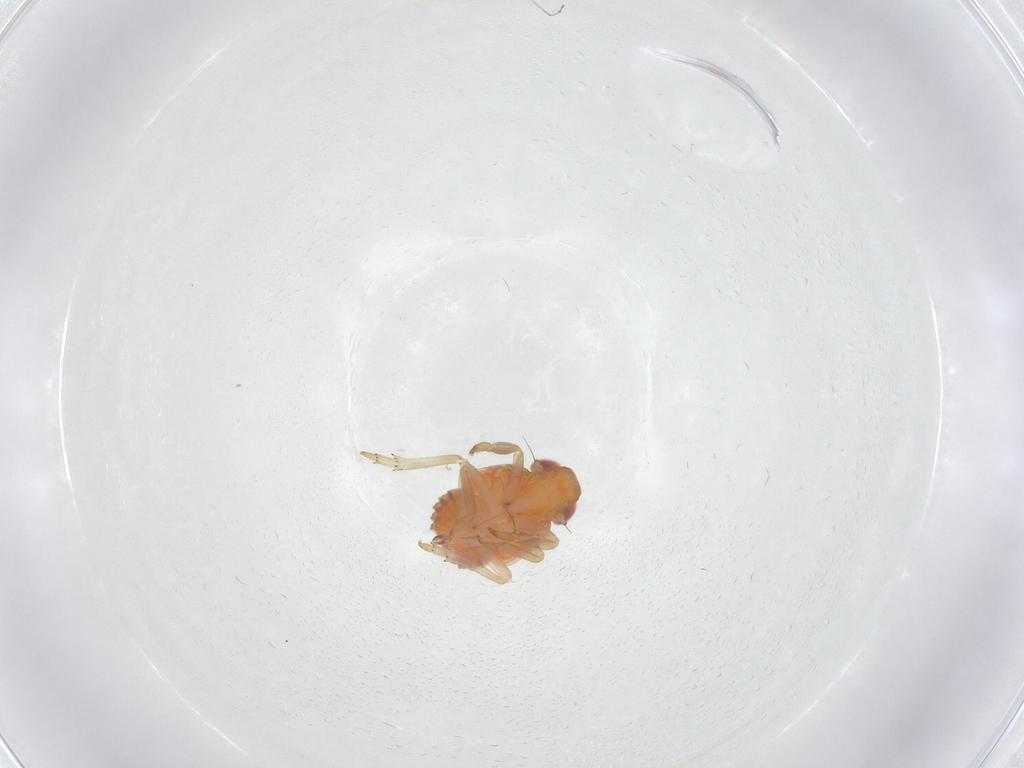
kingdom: Animalia
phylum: Arthropoda
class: Insecta
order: Hemiptera
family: Fulgoroidea_incertae_sedis
